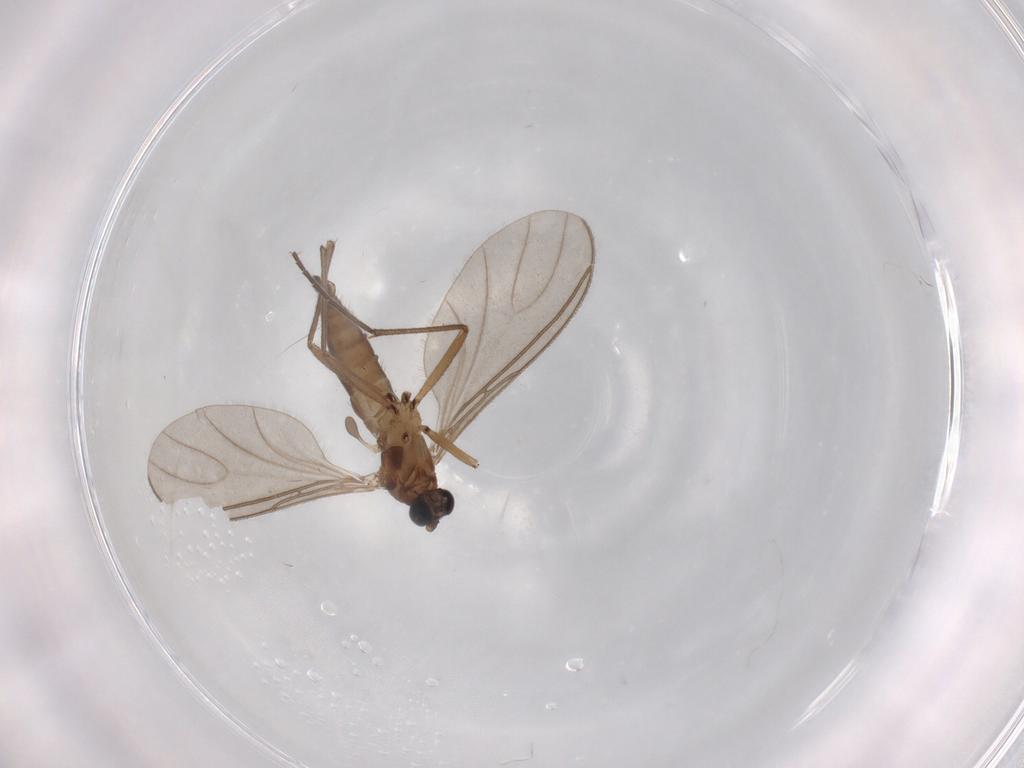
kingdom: Animalia
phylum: Arthropoda
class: Insecta
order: Diptera
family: Sciaridae
